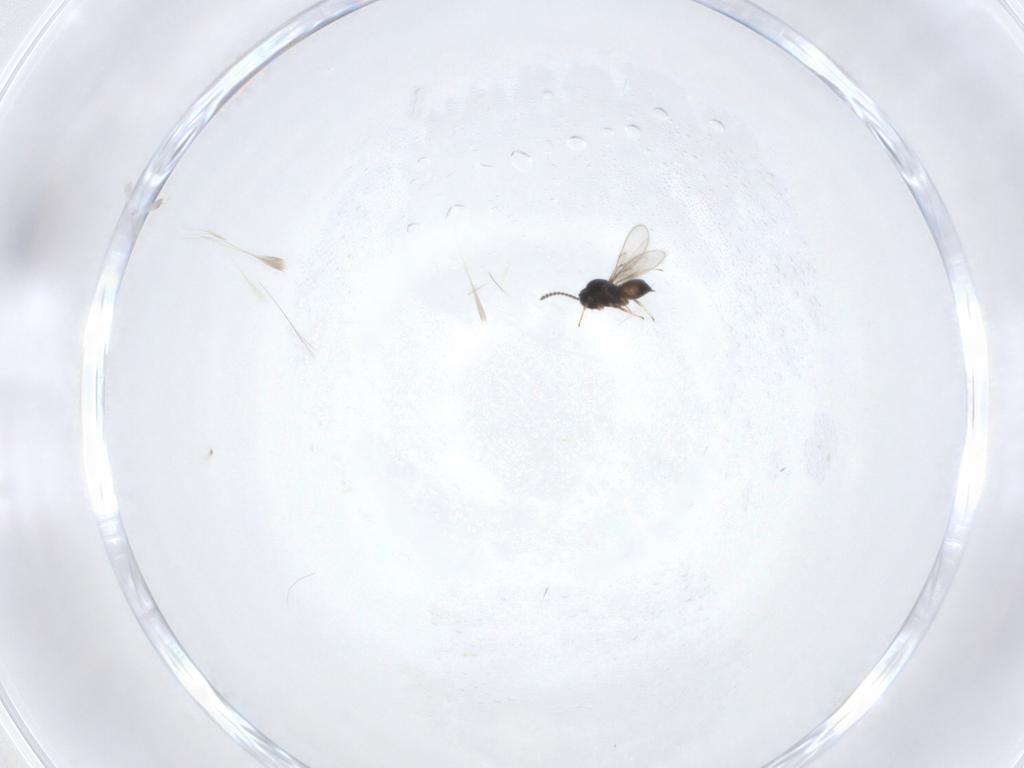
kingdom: Animalia
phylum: Arthropoda
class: Insecta
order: Hymenoptera
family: Scelionidae
